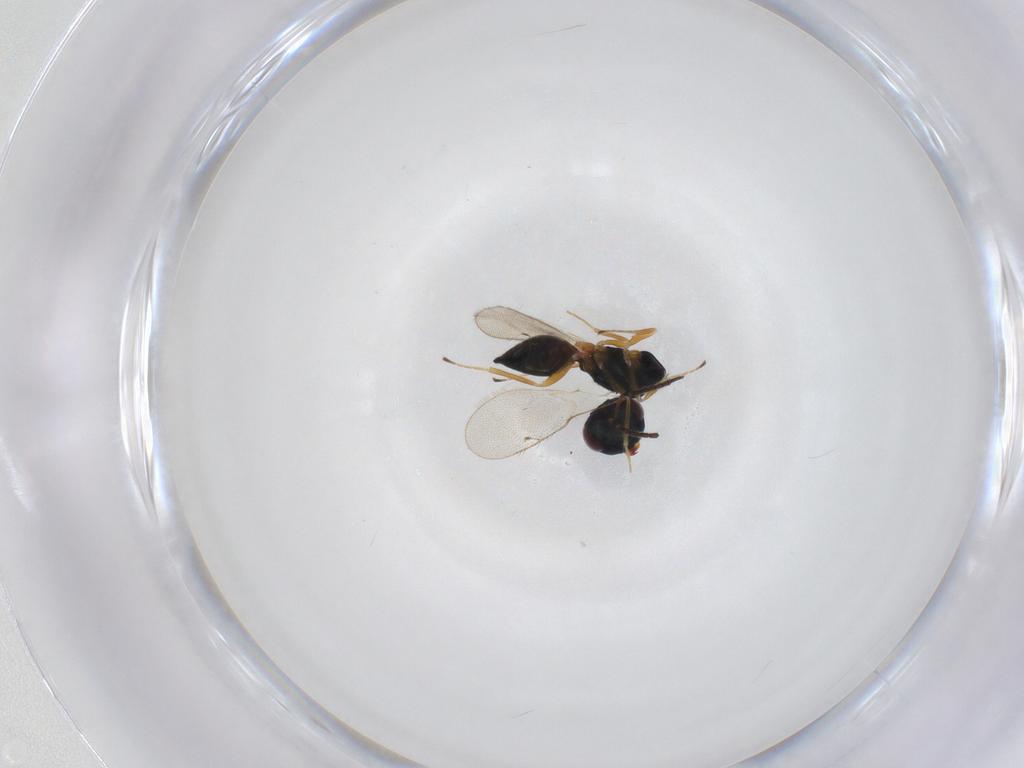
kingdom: Animalia
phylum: Arthropoda
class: Insecta
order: Hymenoptera
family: Pteromalidae
